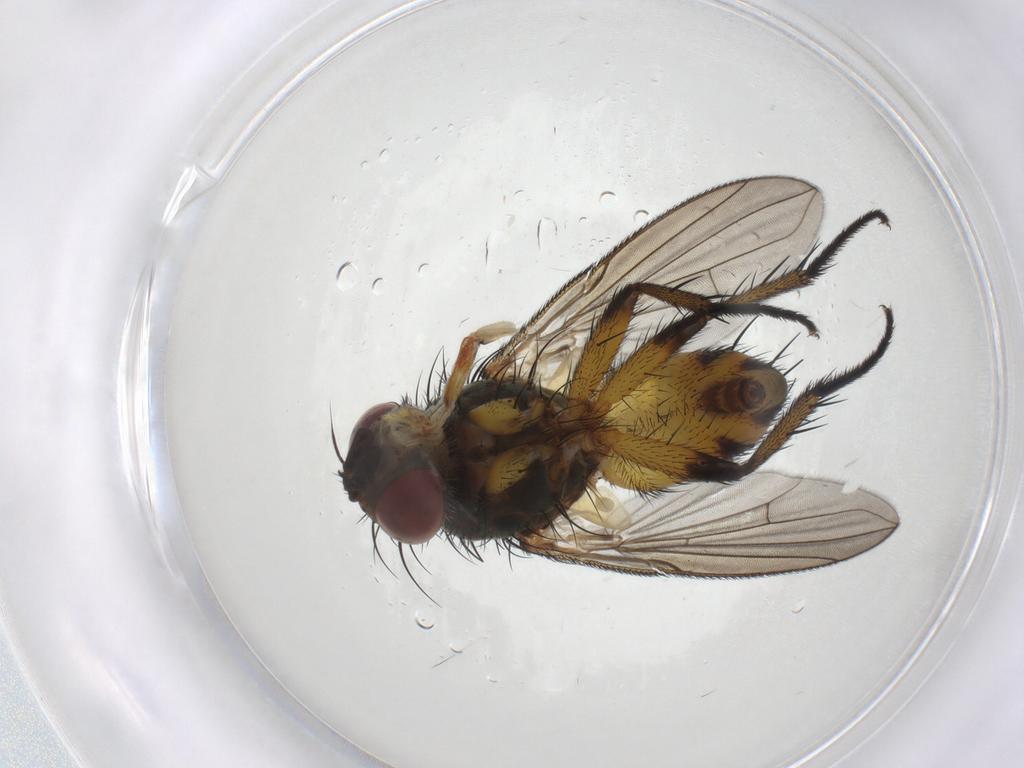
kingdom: Animalia
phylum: Arthropoda
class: Insecta
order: Diptera
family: Tachinidae
